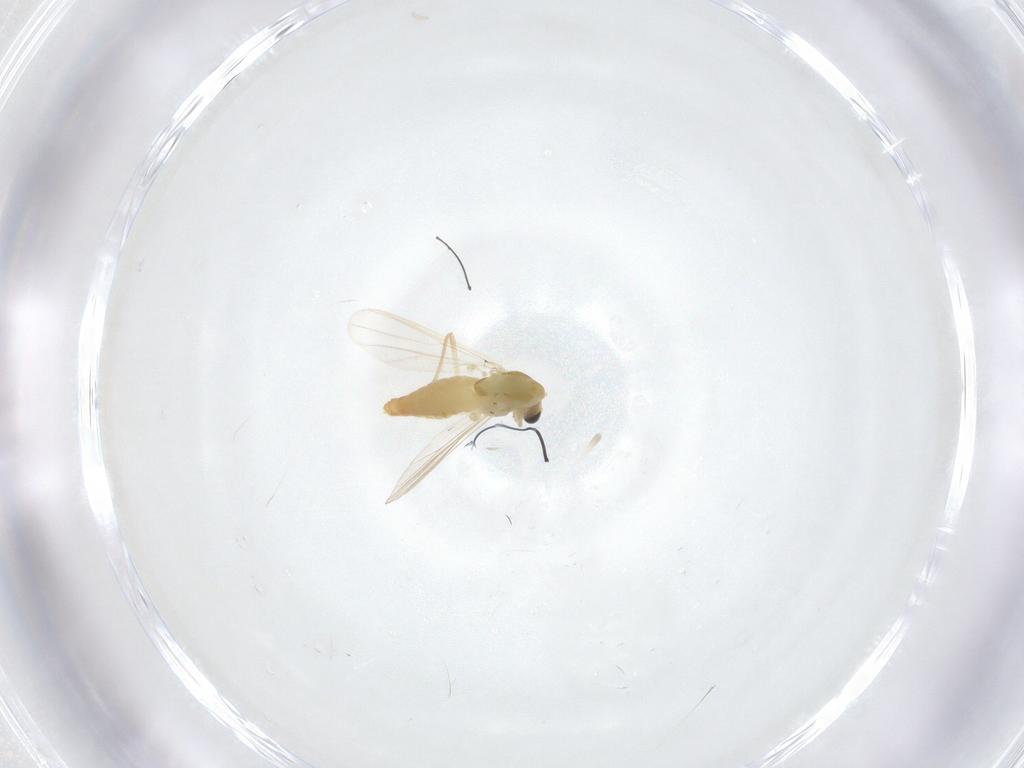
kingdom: Animalia
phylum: Arthropoda
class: Insecta
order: Diptera
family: Chironomidae
